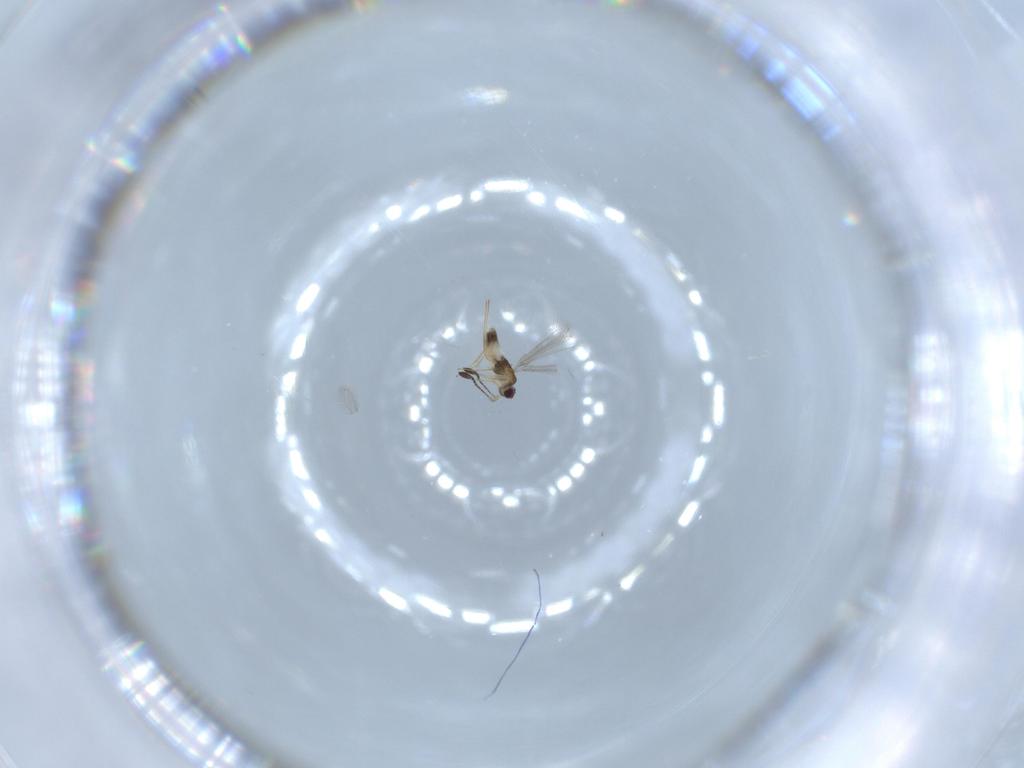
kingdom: Animalia
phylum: Arthropoda
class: Insecta
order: Hymenoptera
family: Mymaridae
